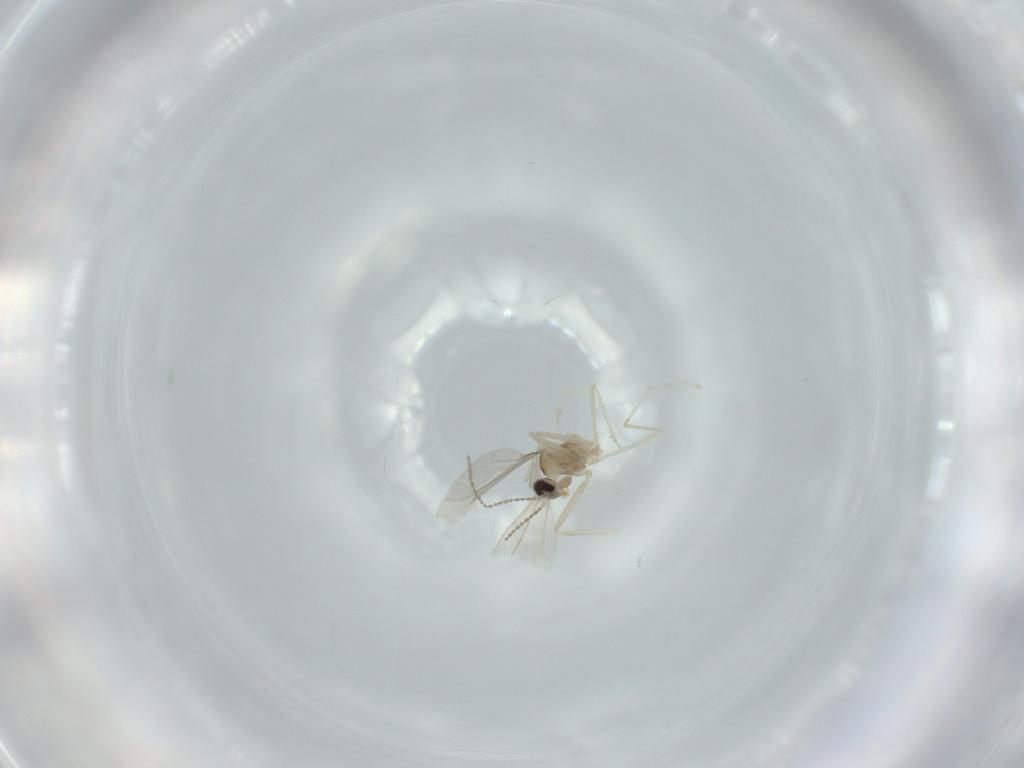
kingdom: Animalia
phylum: Arthropoda
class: Insecta
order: Diptera
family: Cecidomyiidae
